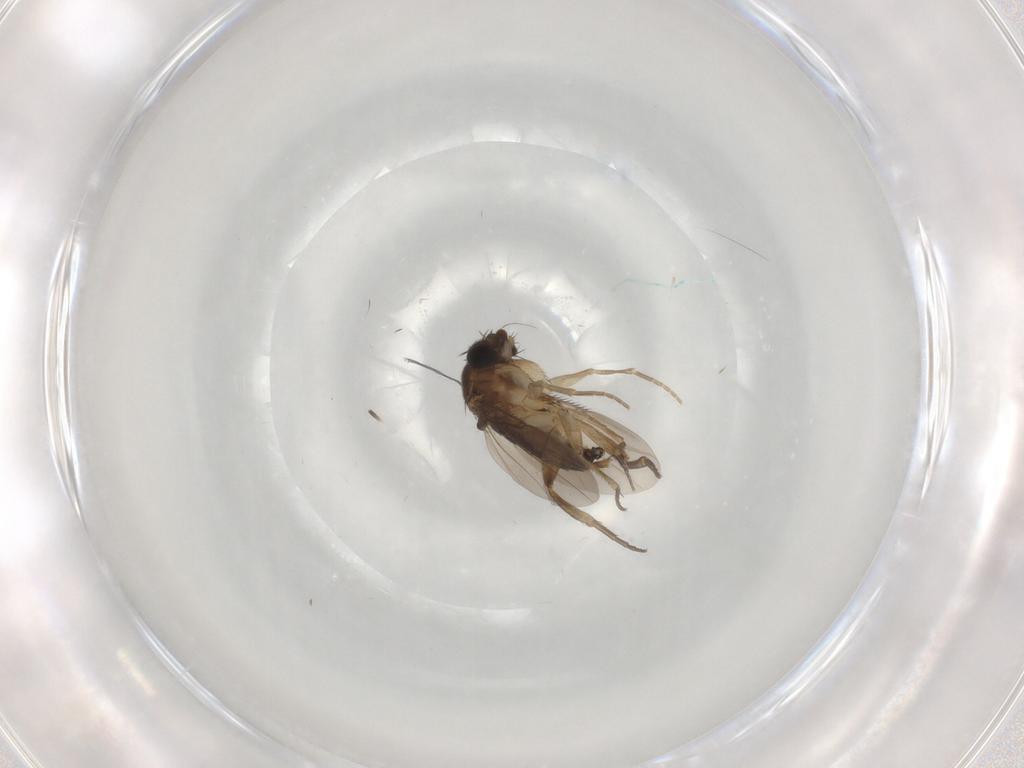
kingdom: Animalia
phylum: Arthropoda
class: Insecta
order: Diptera
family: Phoridae
